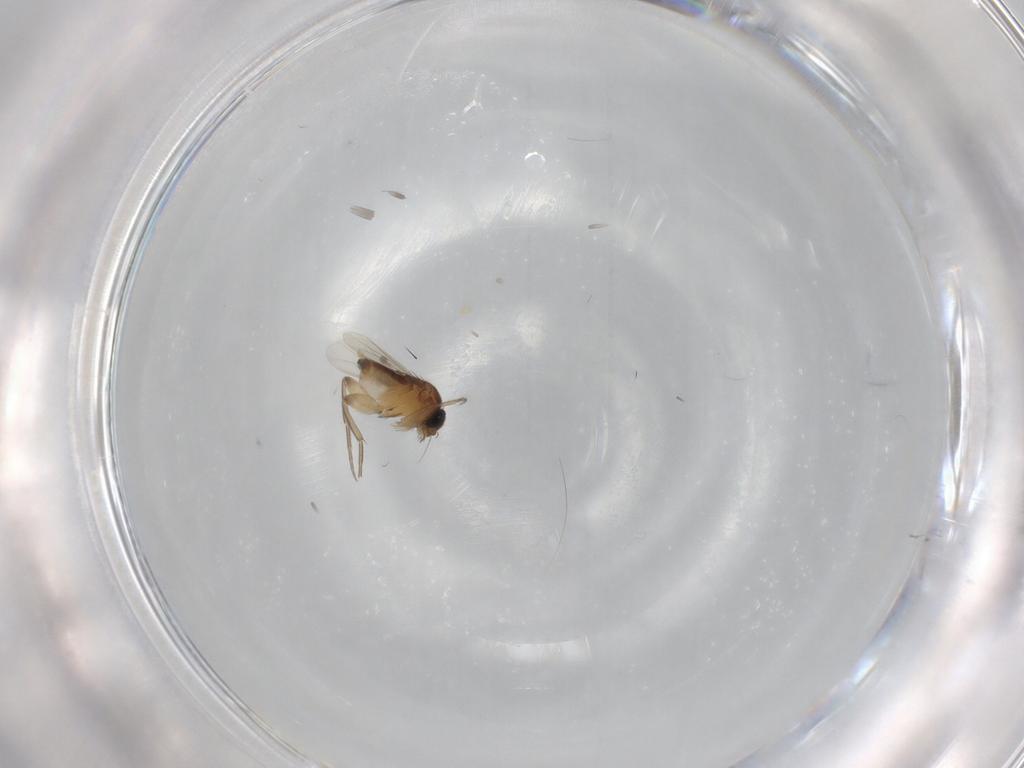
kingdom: Animalia
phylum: Arthropoda
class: Insecta
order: Diptera
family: Phoridae
